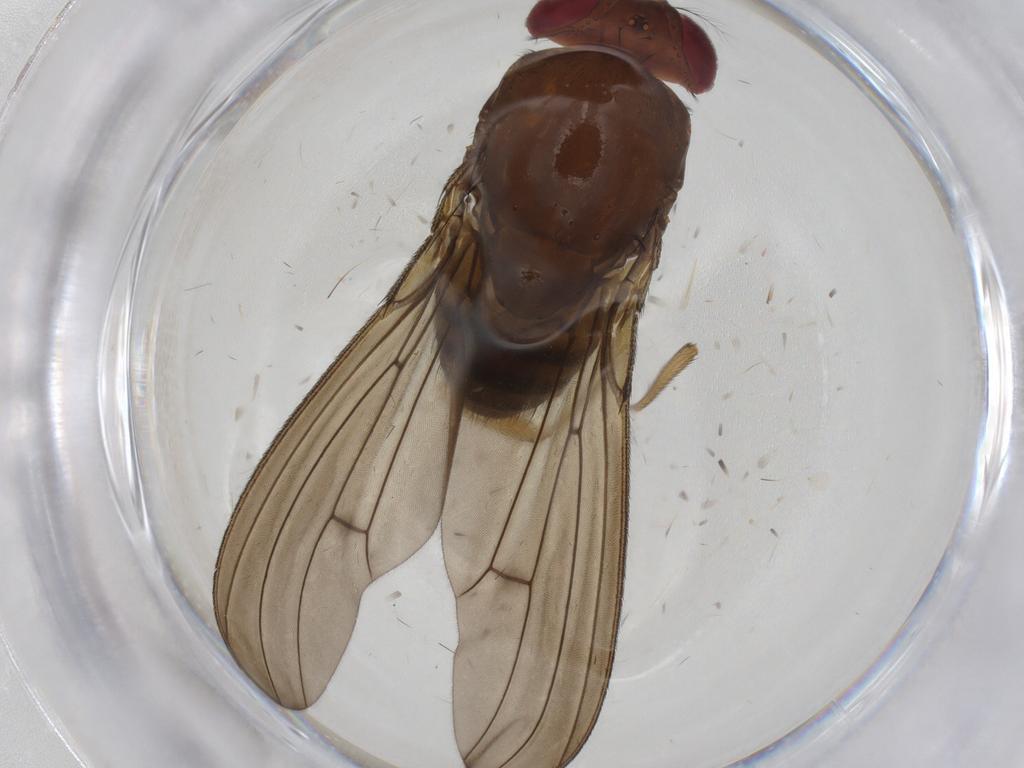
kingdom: Animalia
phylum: Arthropoda
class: Insecta
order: Diptera
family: Drosophilidae
